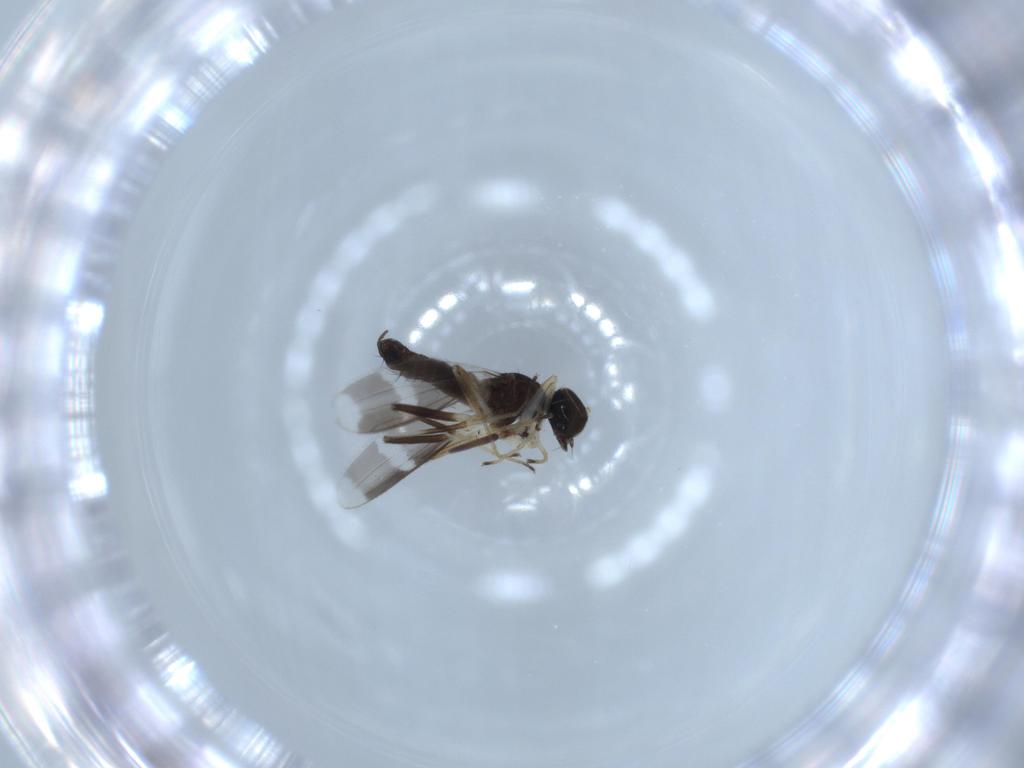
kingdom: Animalia
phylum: Arthropoda
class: Insecta
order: Diptera
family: Hybotidae
